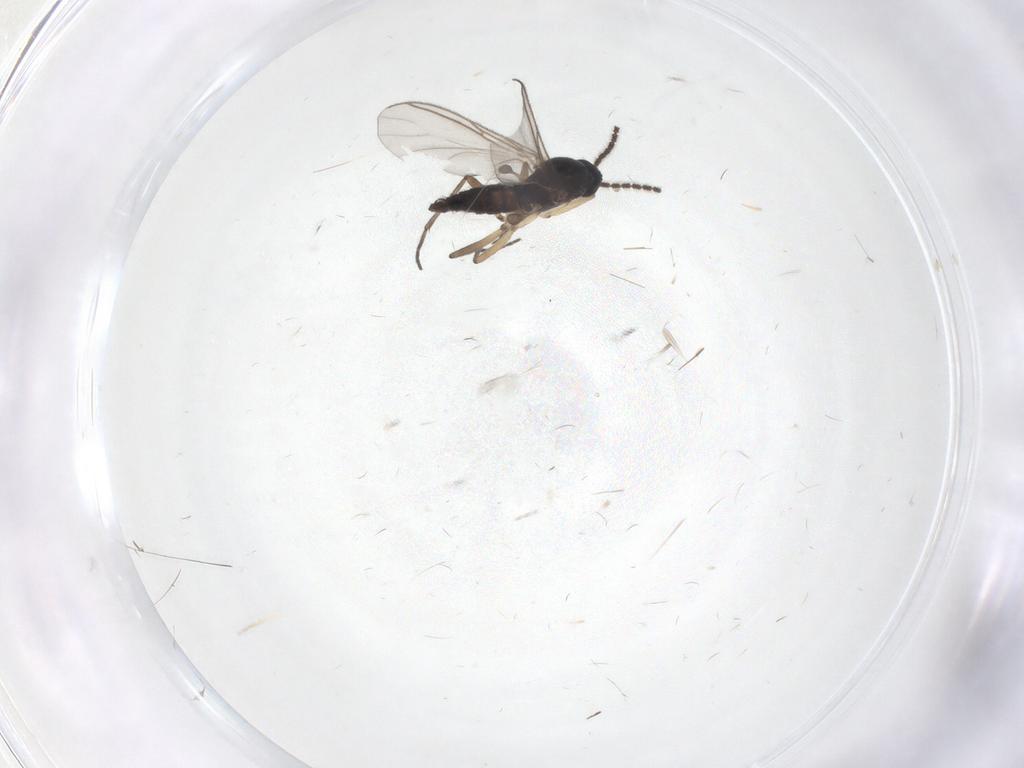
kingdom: Animalia
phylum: Arthropoda
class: Insecta
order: Diptera
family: Sciaridae
